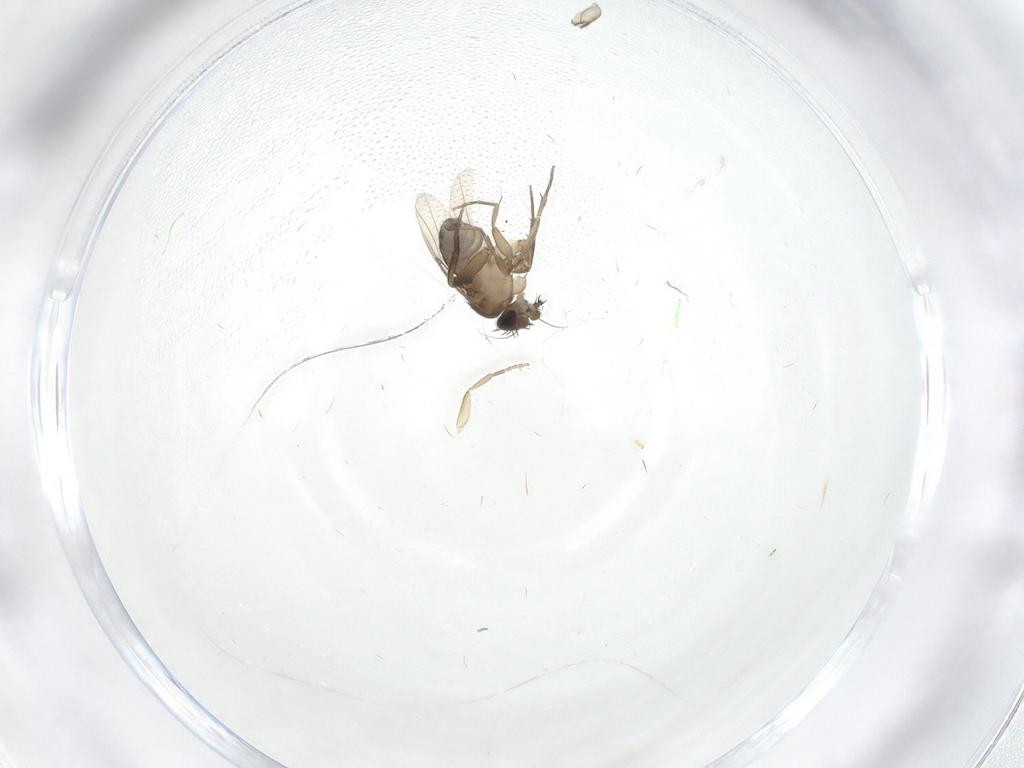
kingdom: Animalia
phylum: Arthropoda
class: Insecta
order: Diptera
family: Limoniidae
